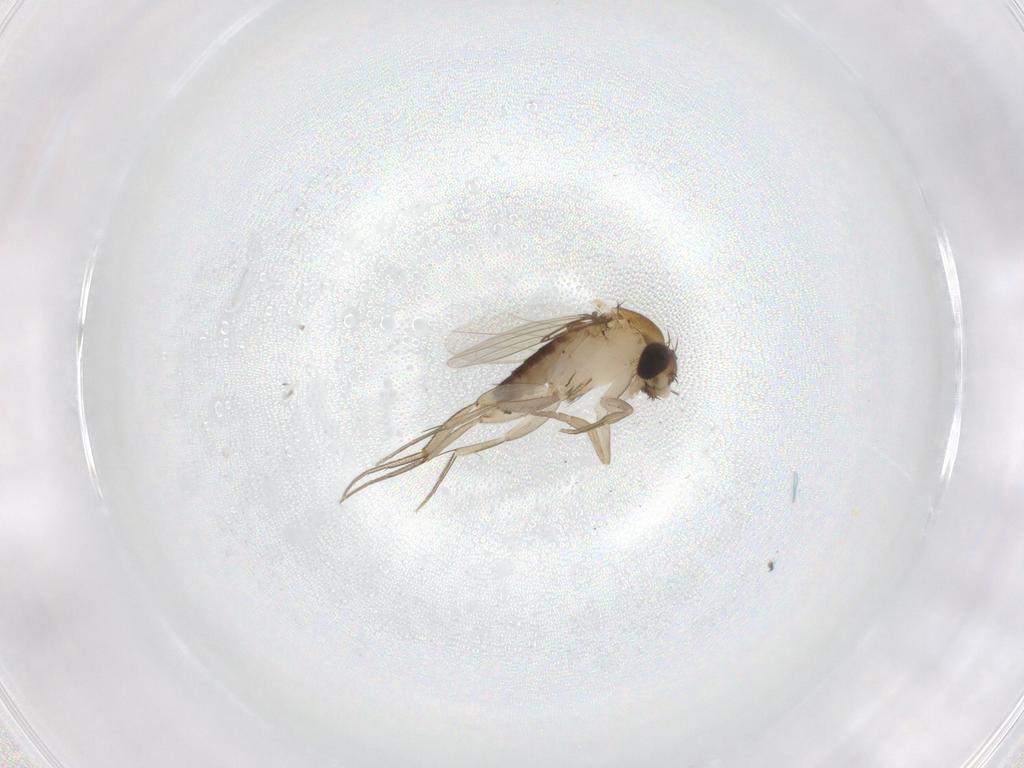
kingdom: Animalia
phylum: Arthropoda
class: Insecta
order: Diptera
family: Phoridae
